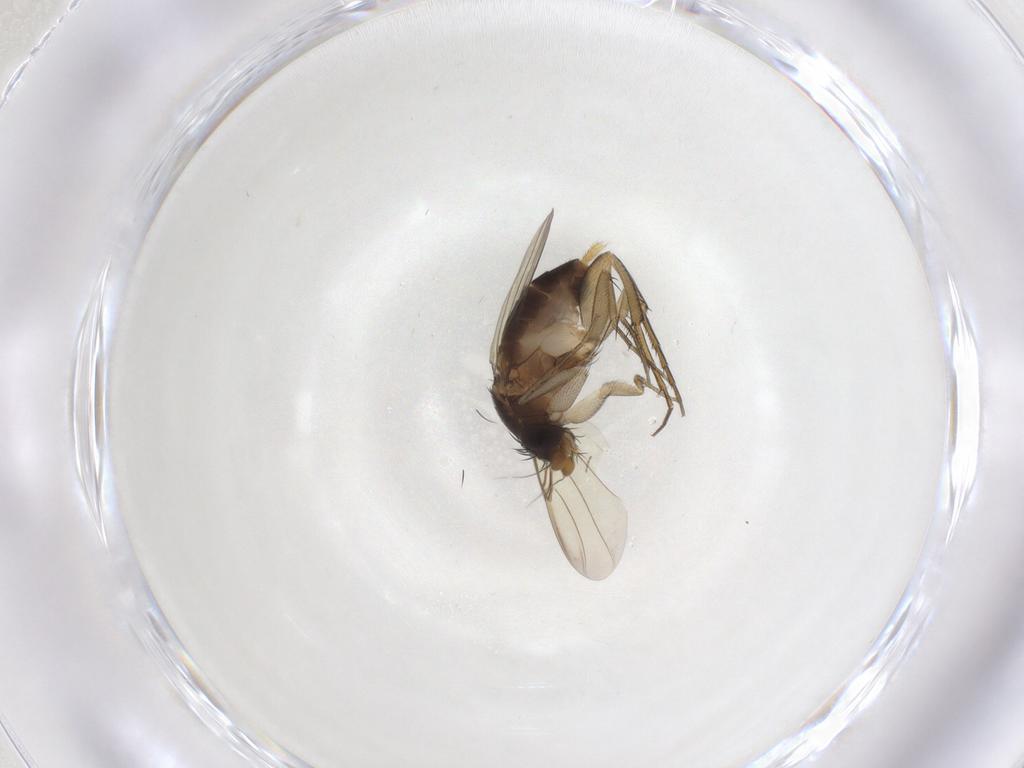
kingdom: Animalia
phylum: Arthropoda
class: Insecta
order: Diptera
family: Phoridae
